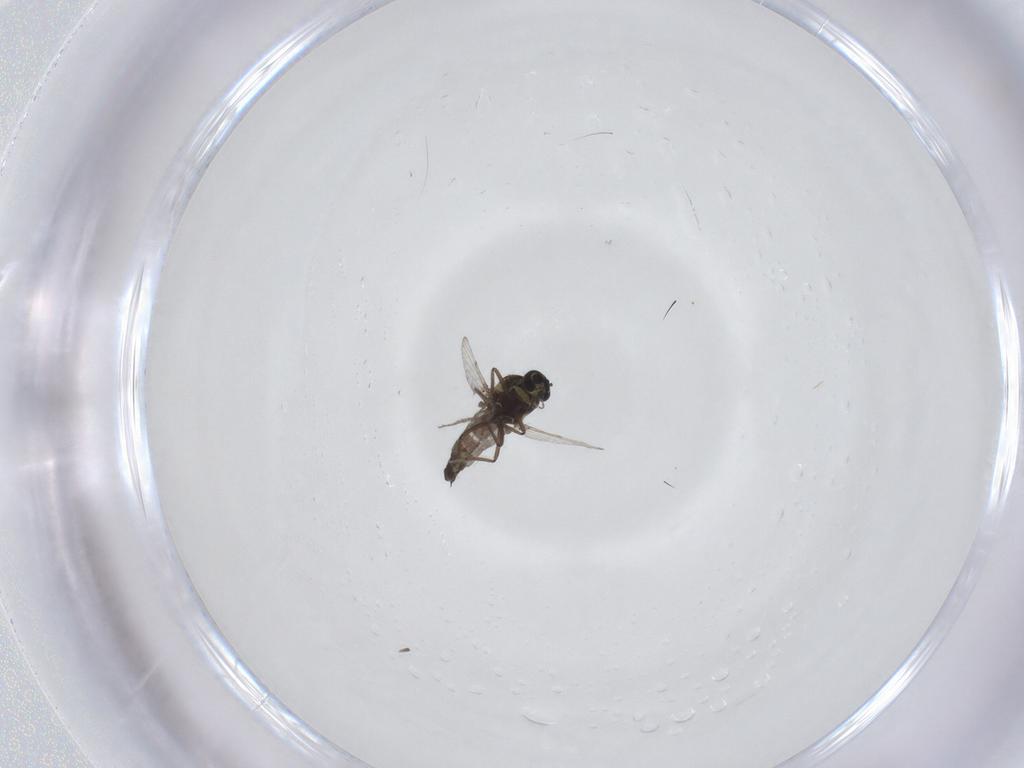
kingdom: Animalia
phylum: Arthropoda
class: Insecta
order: Diptera
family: Ceratopogonidae
